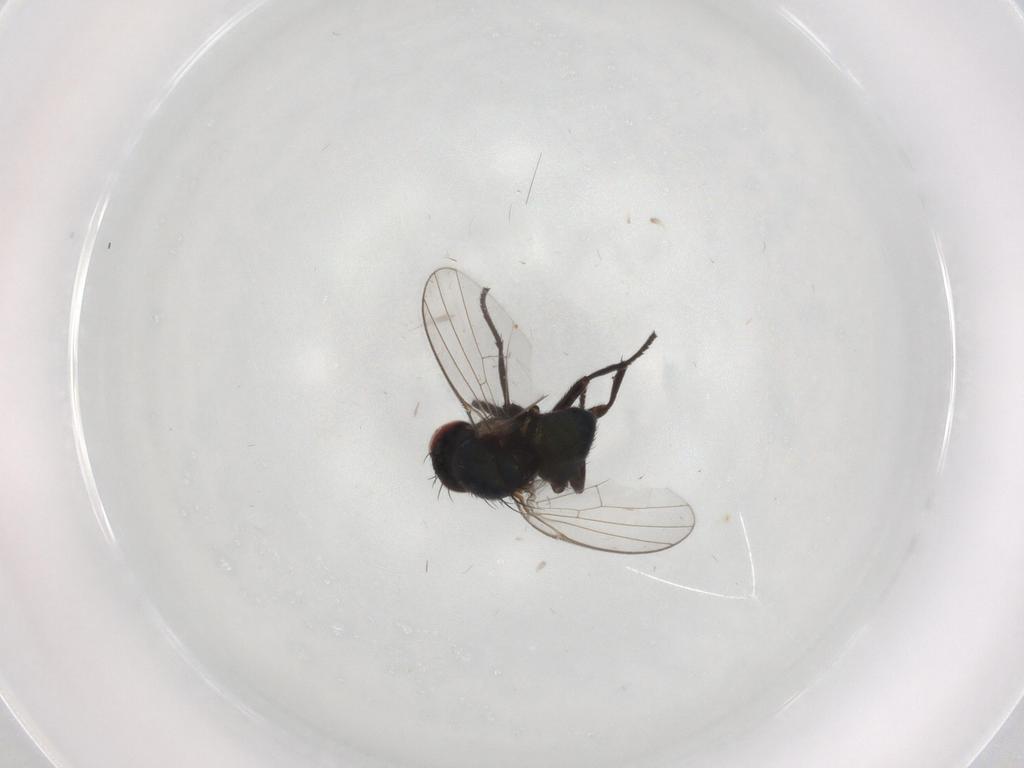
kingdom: Animalia
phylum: Arthropoda
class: Insecta
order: Diptera
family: Agromyzidae
